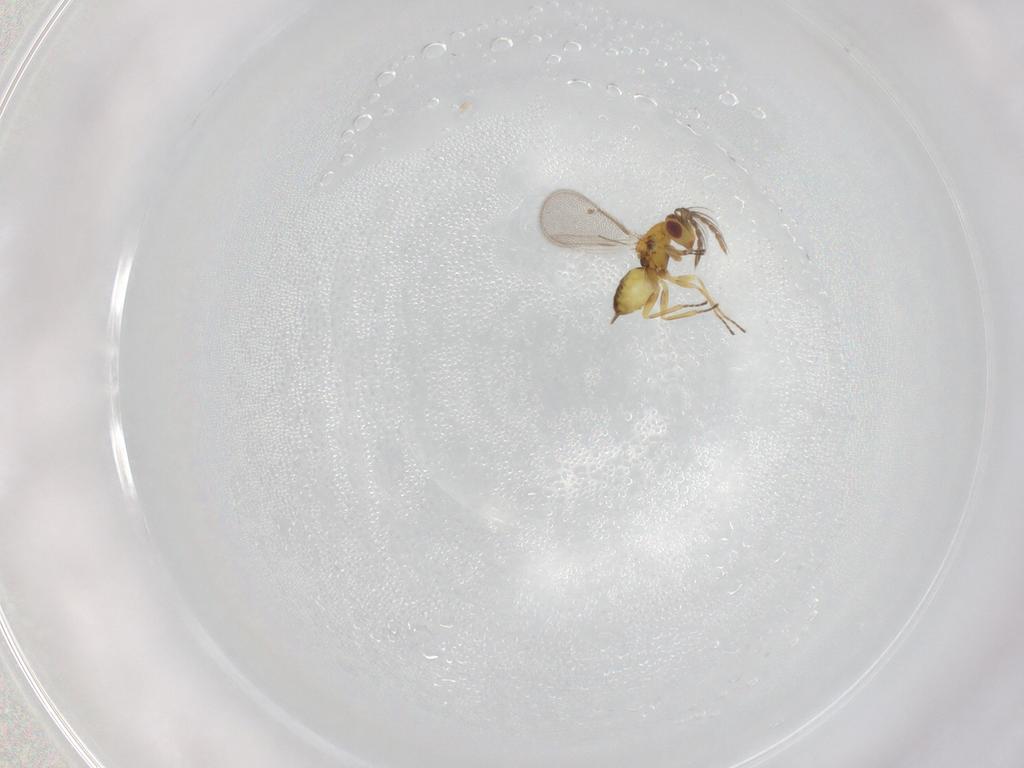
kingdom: Animalia
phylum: Arthropoda
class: Insecta
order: Hymenoptera
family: Eulophidae
